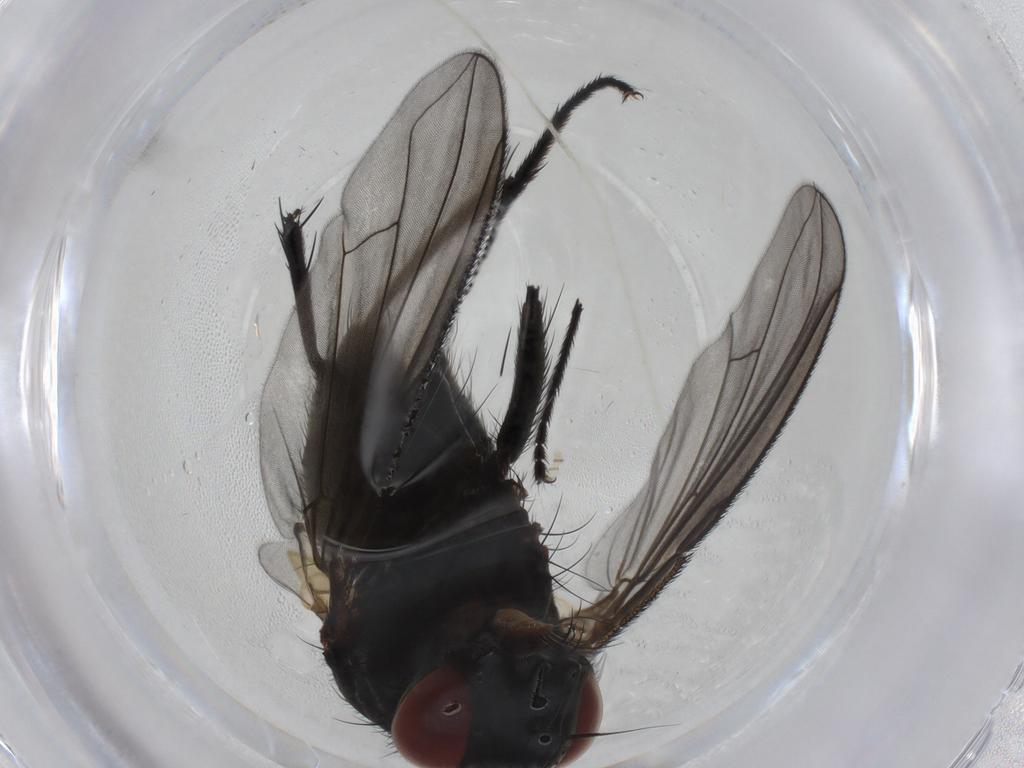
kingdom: Animalia
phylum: Arthropoda
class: Insecta
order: Diptera
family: Tachinidae
